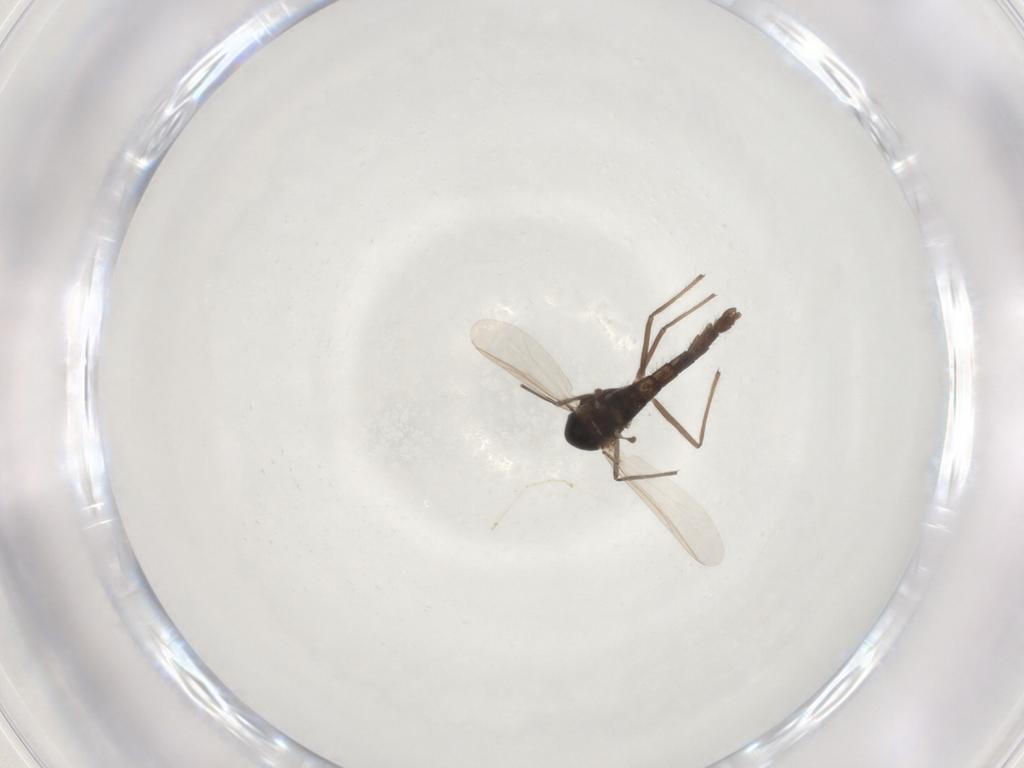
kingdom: Animalia
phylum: Arthropoda
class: Insecta
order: Diptera
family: Chironomidae
